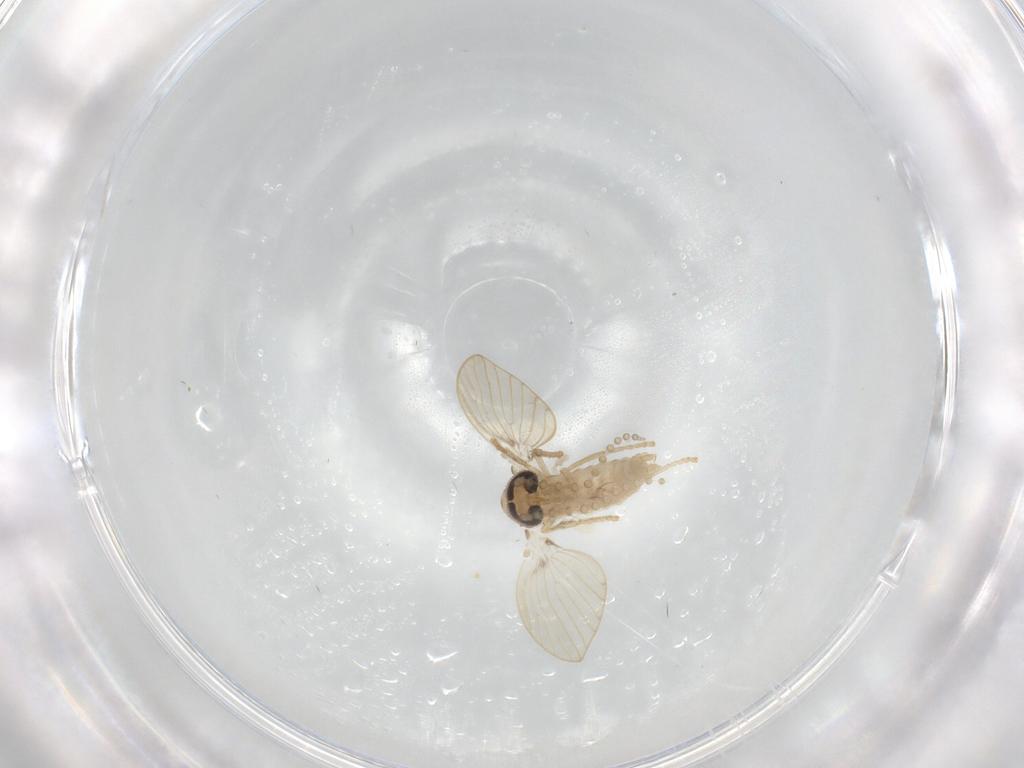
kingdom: Animalia
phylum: Arthropoda
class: Insecta
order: Diptera
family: Psychodidae
